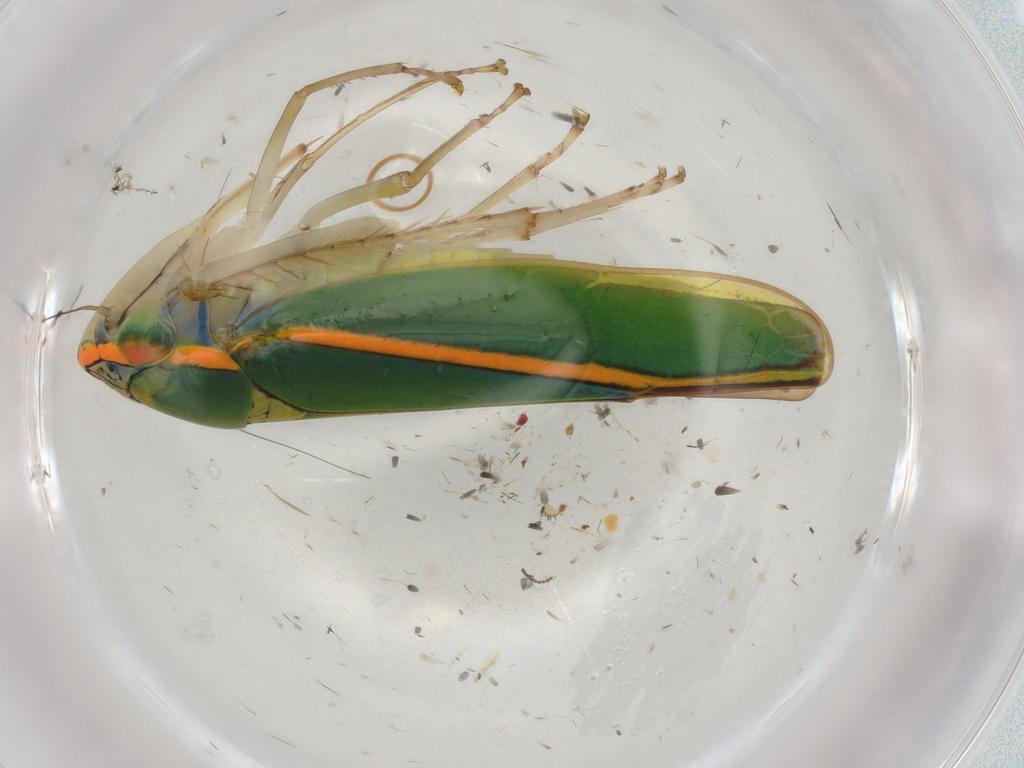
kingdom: Animalia
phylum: Arthropoda
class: Insecta
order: Hemiptera
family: Cicadellidae
